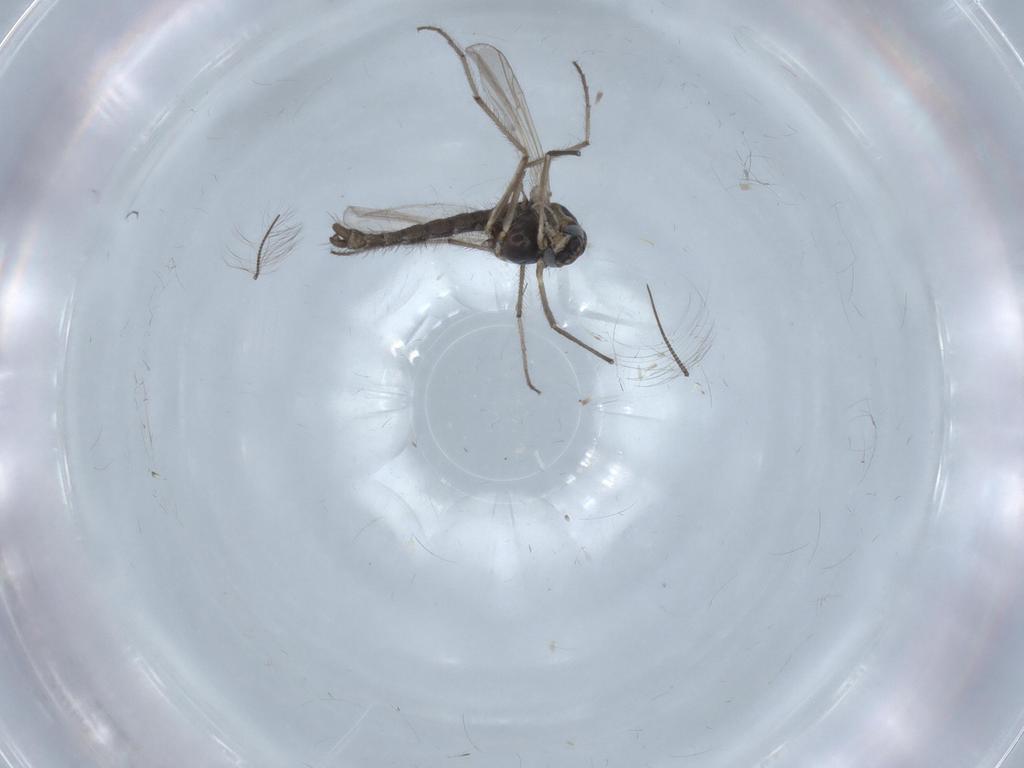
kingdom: Animalia
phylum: Arthropoda
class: Insecta
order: Diptera
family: Chironomidae
